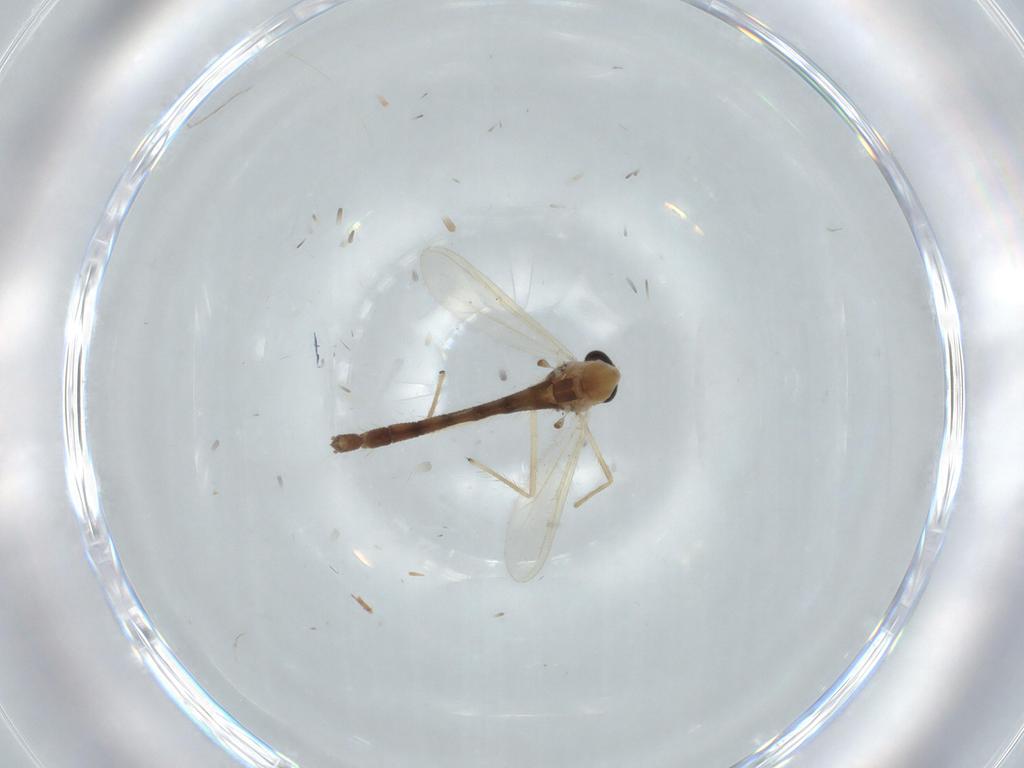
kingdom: Animalia
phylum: Arthropoda
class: Insecta
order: Diptera
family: Chironomidae
